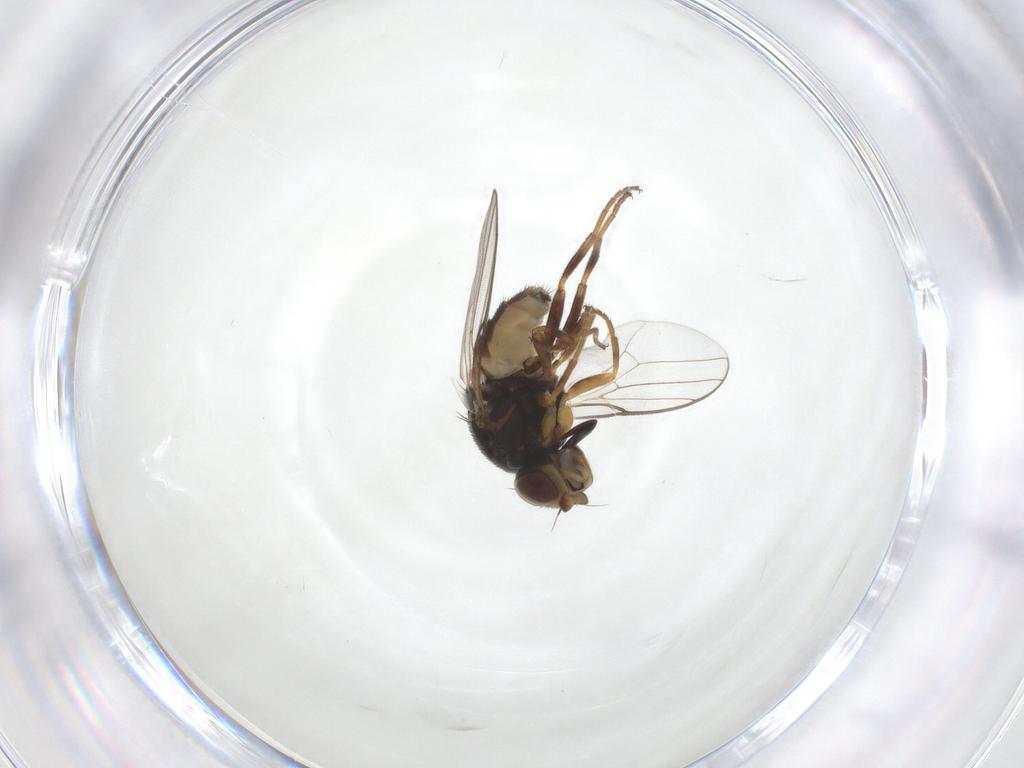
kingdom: Animalia
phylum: Arthropoda
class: Insecta
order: Diptera
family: Chloropidae
